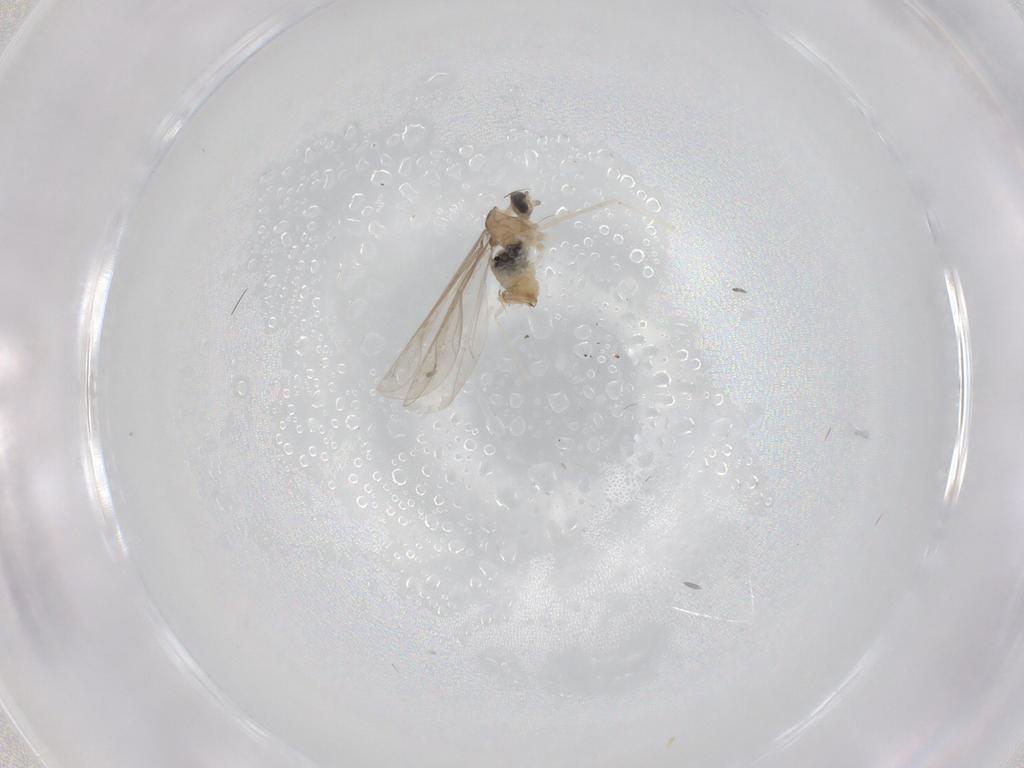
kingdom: Animalia
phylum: Arthropoda
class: Insecta
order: Diptera
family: Cecidomyiidae
